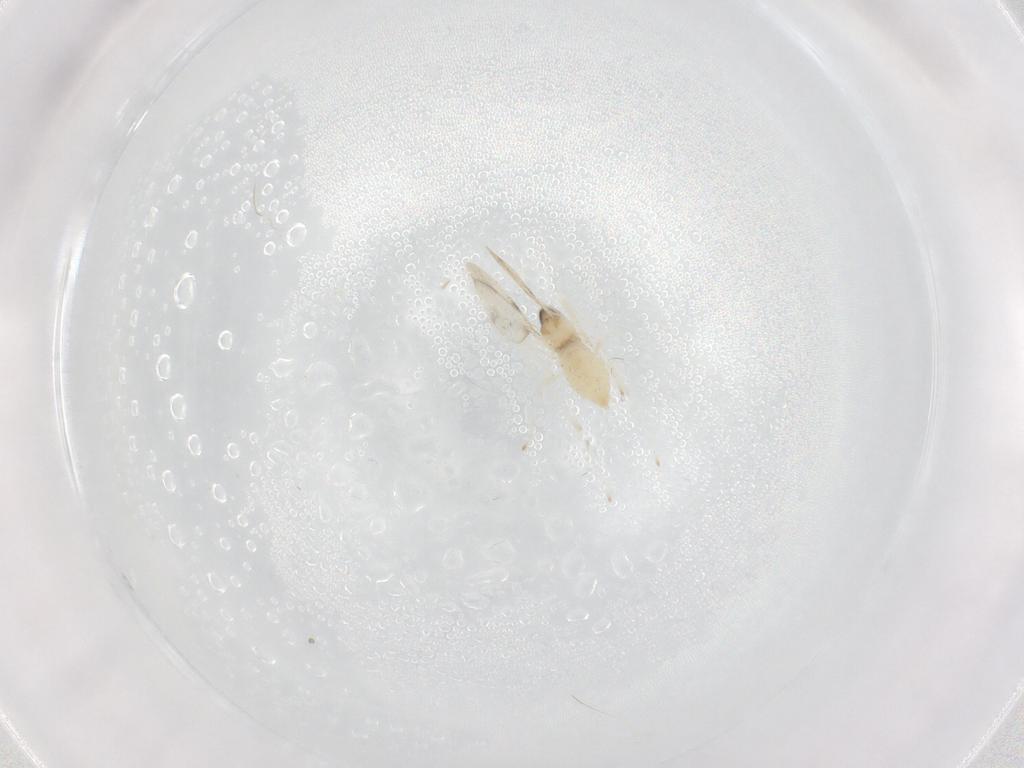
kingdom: Animalia
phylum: Arthropoda
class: Insecta
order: Diptera
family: Cecidomyiidae
